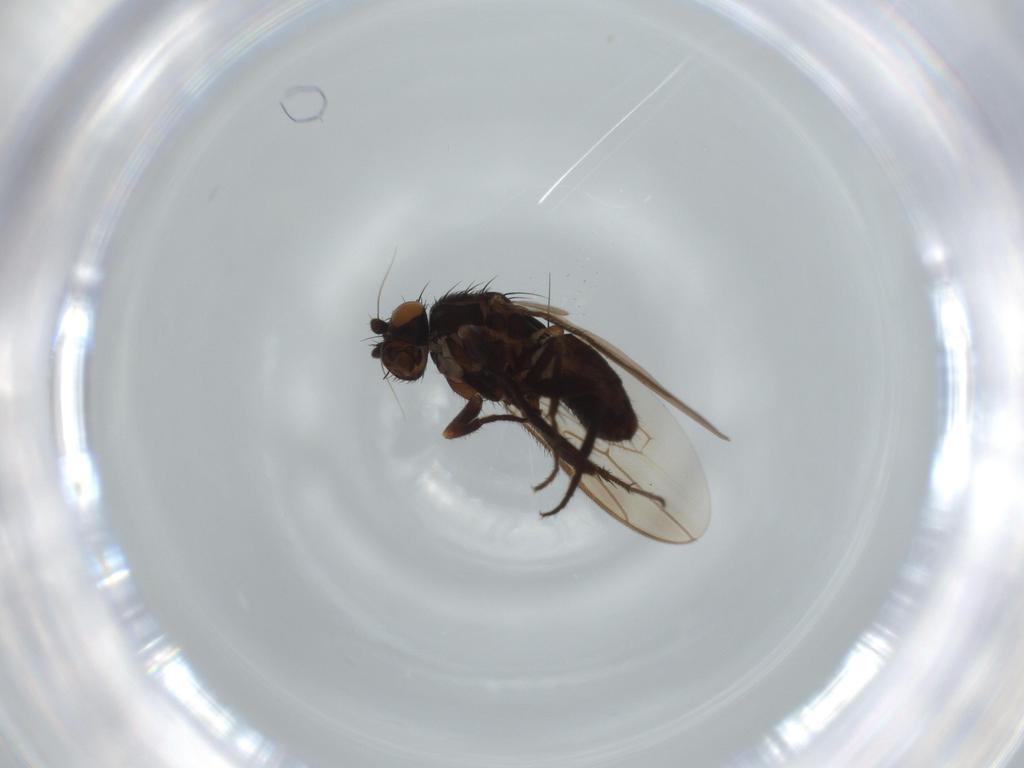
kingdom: Animalia
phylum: Arthropoda
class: Insecta
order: Diptera
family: Sphaeroceridae
